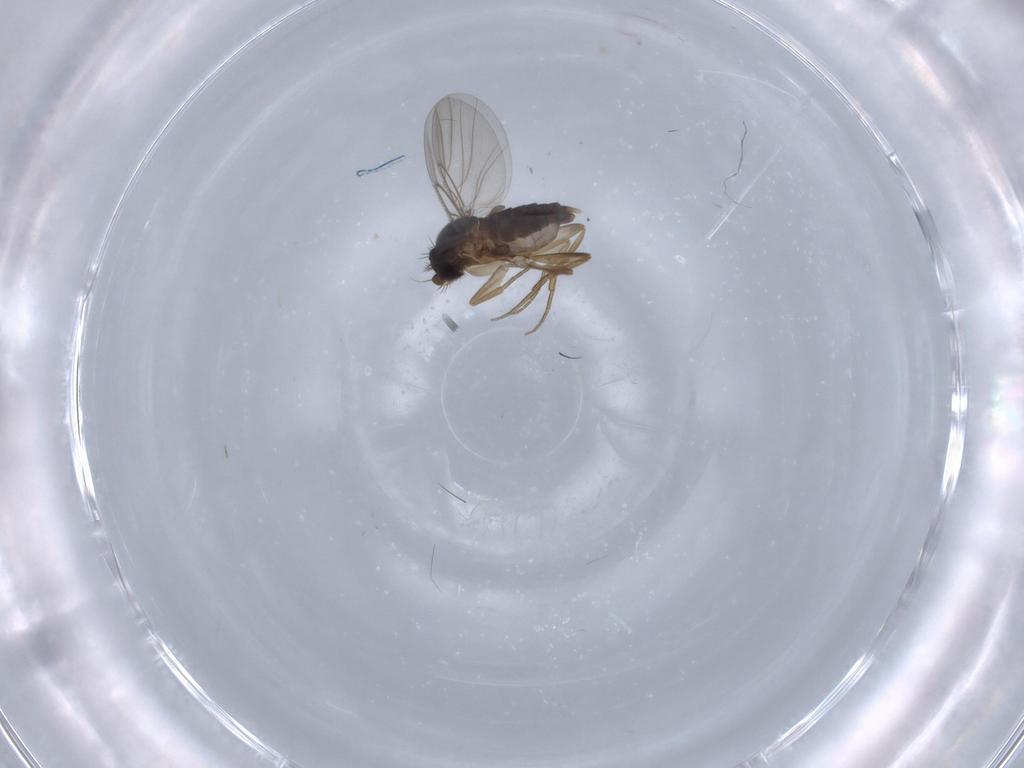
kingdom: Animalia
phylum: Arthropoda
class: Insecta
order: Diptera
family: Phoridae
